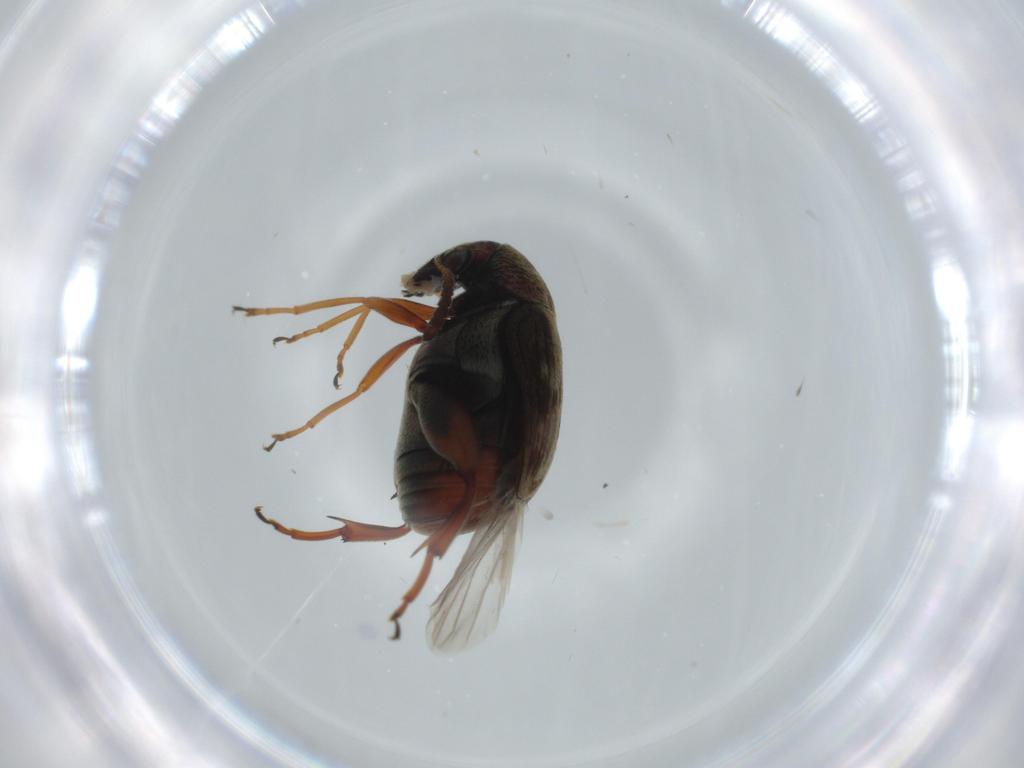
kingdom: Animalia
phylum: Arthropoda
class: Insecta
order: Coleoptera
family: Chrysomelidae
